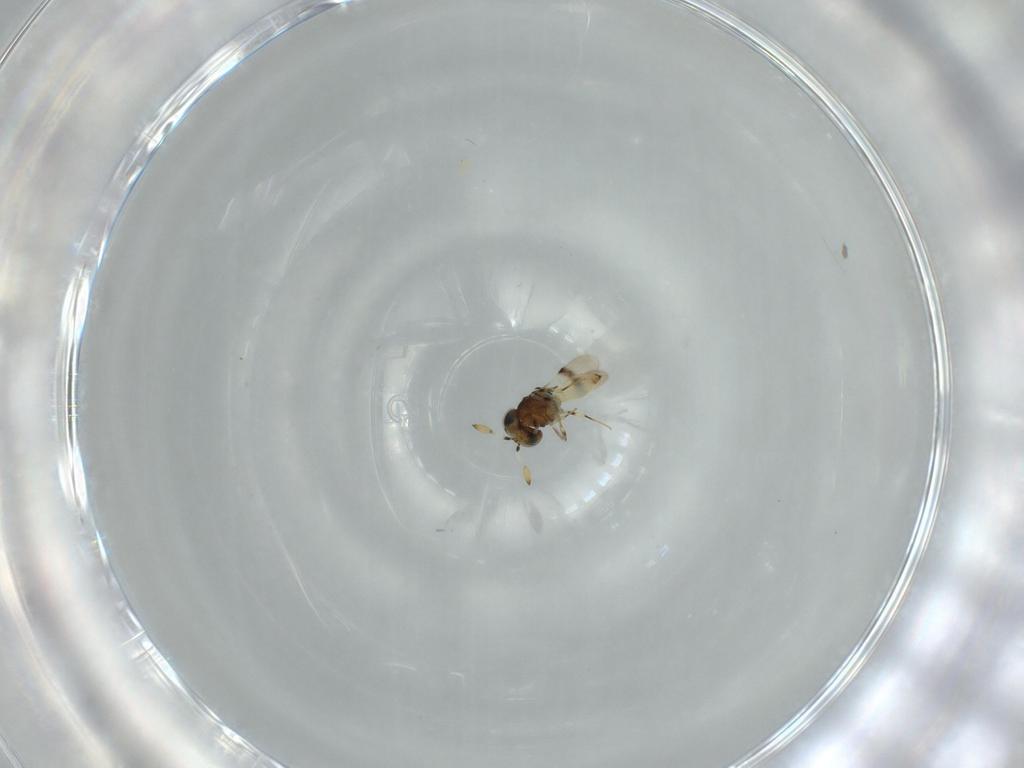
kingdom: Animalia
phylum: Arthropoda
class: Insecta
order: Hymenoptera
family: Scelionidae
